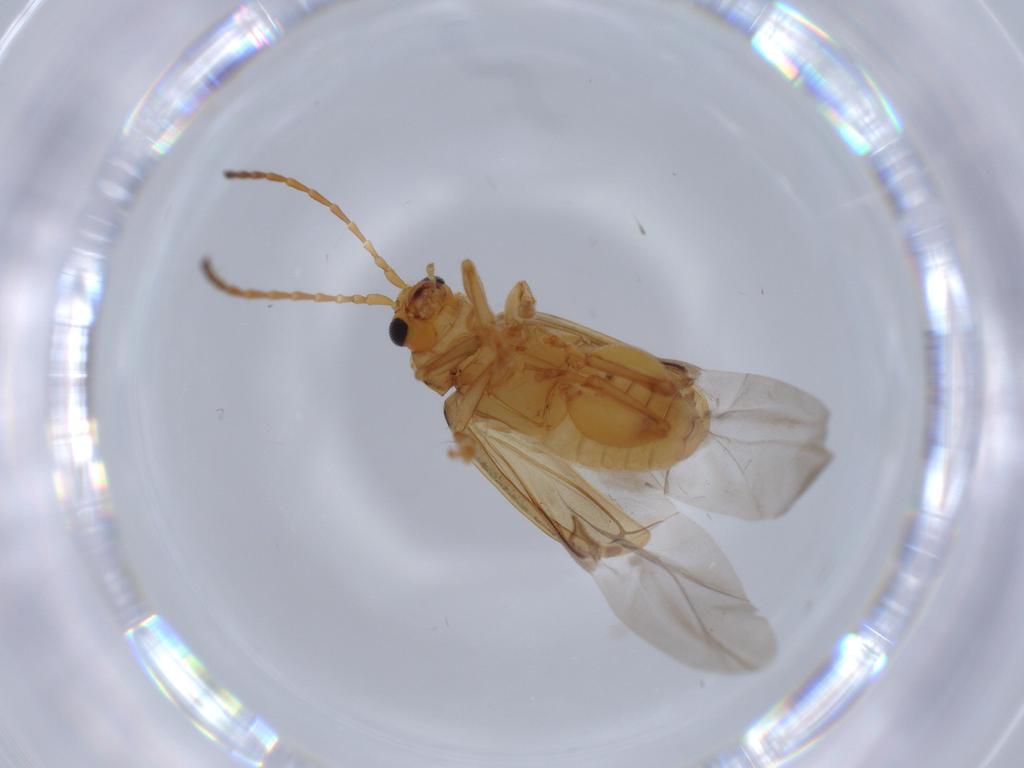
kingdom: Animalia
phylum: Arthropoda
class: Insecta
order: Coleoptera
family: Chrysomelidae
